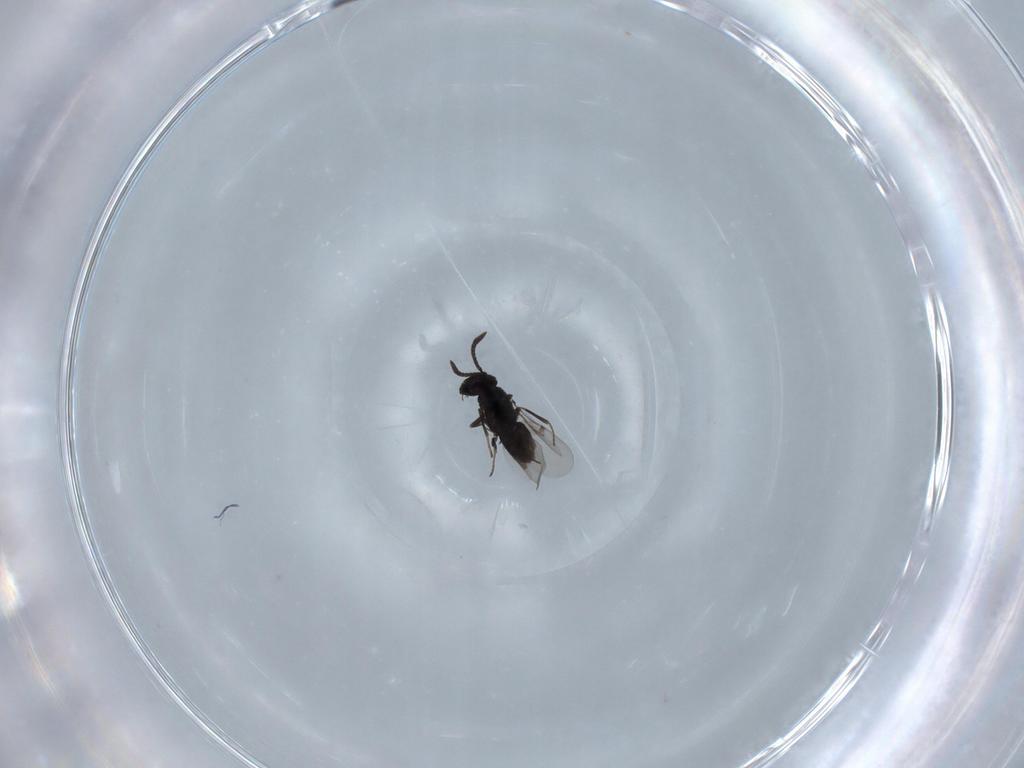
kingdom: Animalia
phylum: Arthropoda
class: Insecta
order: Hymenoptera
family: Encyrtidae
